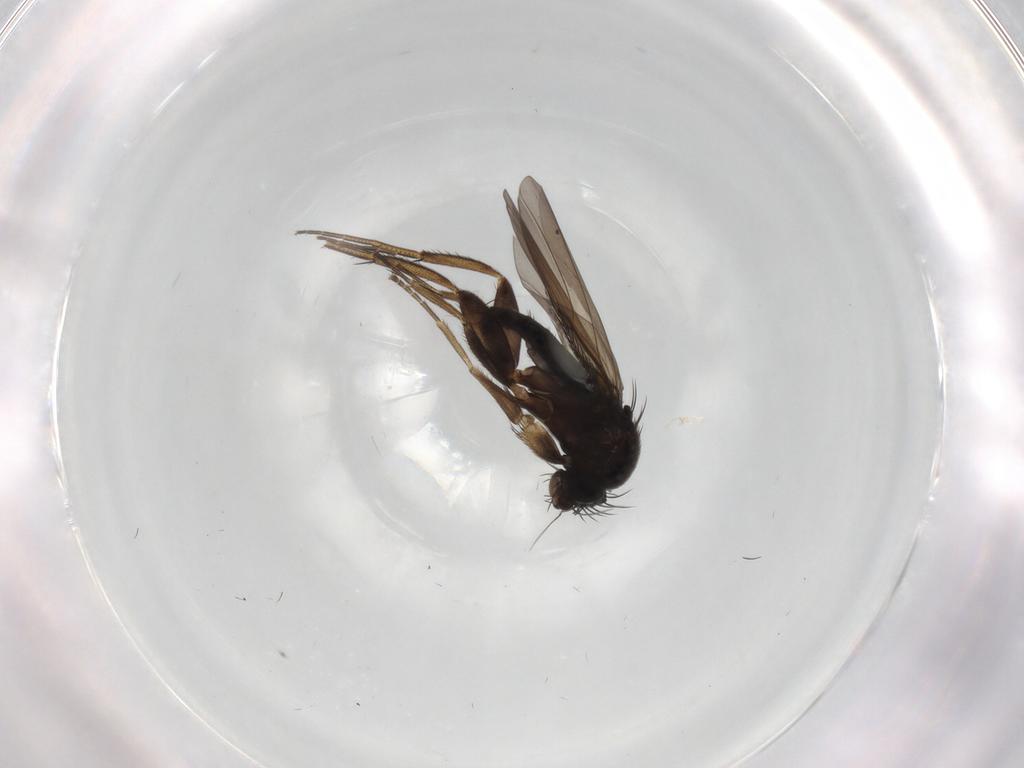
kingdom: Animalia
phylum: Arthropoda
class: Insecta
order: Diptera
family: Phoridae
